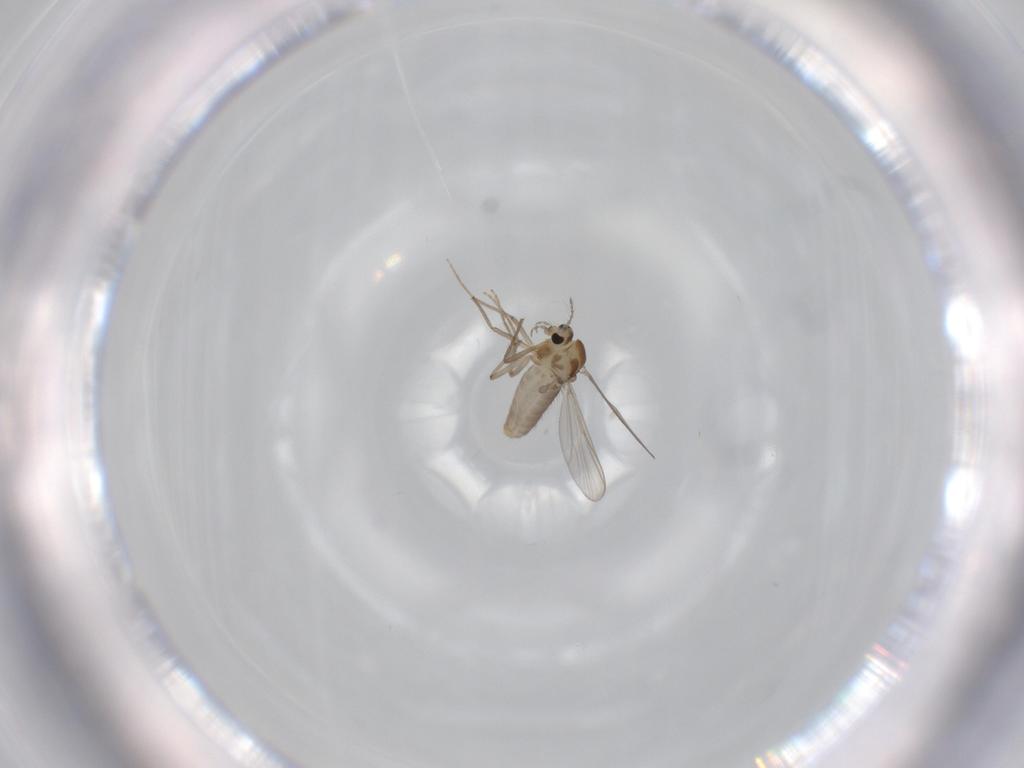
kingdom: Animalia
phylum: Arthropoda
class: Insecta
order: Diptera
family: Chironomidae
